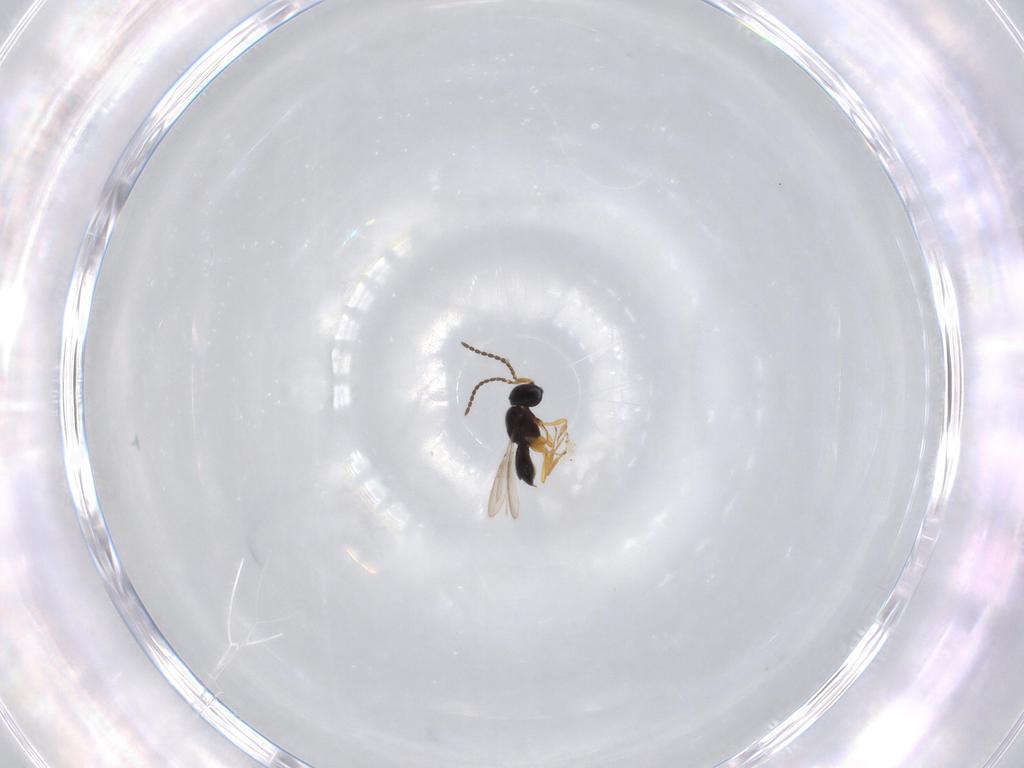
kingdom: Animalia
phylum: Arthropoda
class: Insecta
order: Hymenoptera
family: Scelionidae
